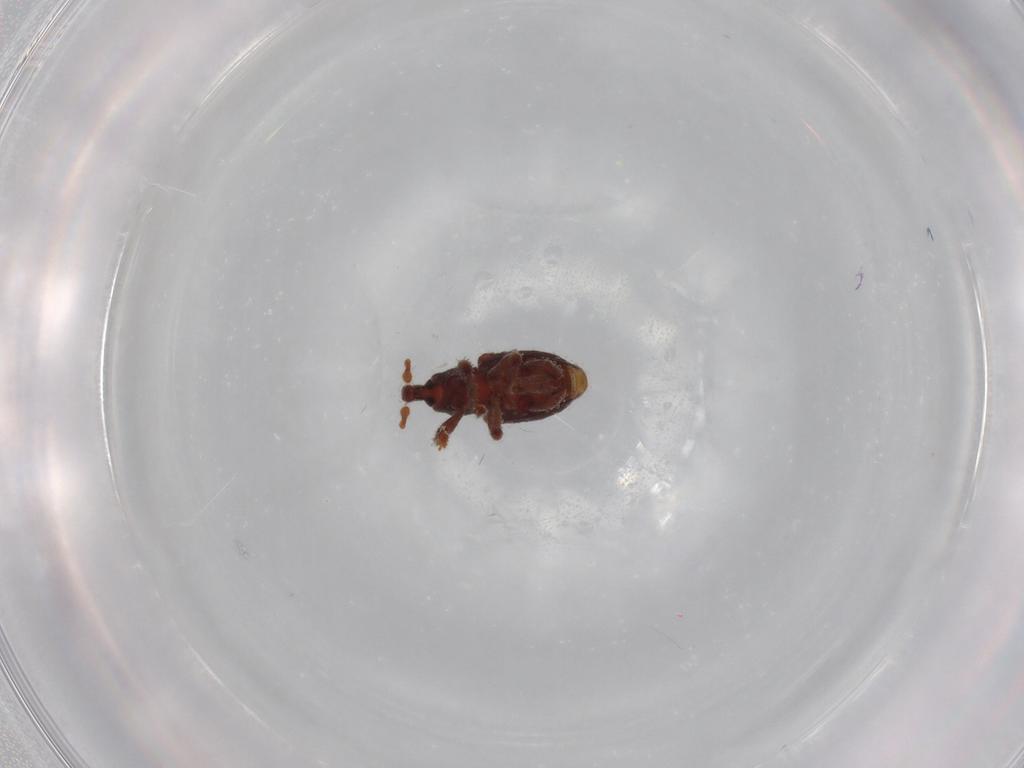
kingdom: Animalia
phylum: Arthropoda
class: Insecta
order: Coleoptera
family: Curculionidae
